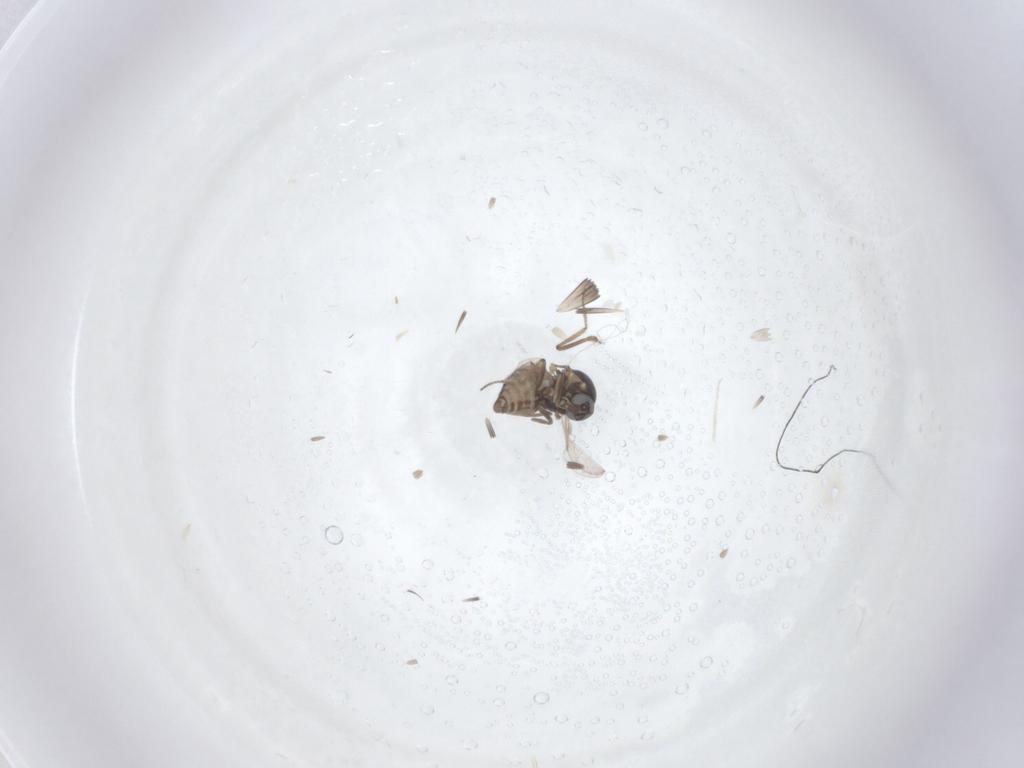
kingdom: Animalia
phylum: Arthropoda
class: Insecta
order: Diptera
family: Ceratopogonidae
